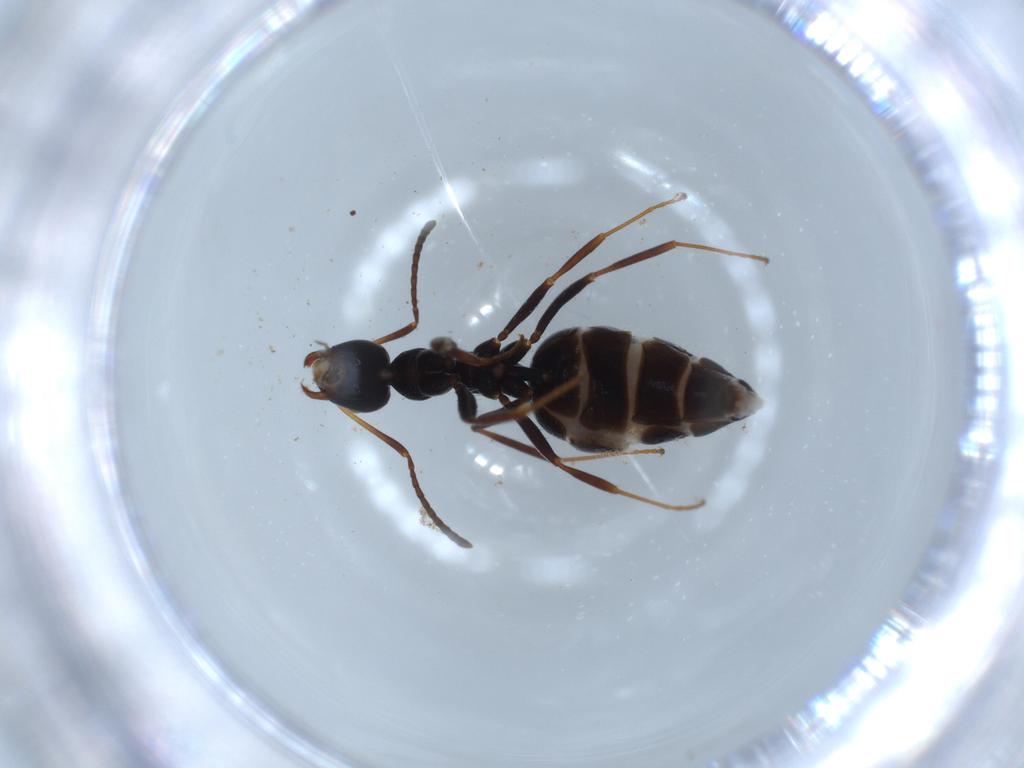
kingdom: Animalia
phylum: Arthropoda
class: Insecta
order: Hymenoptera
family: Formicidae
